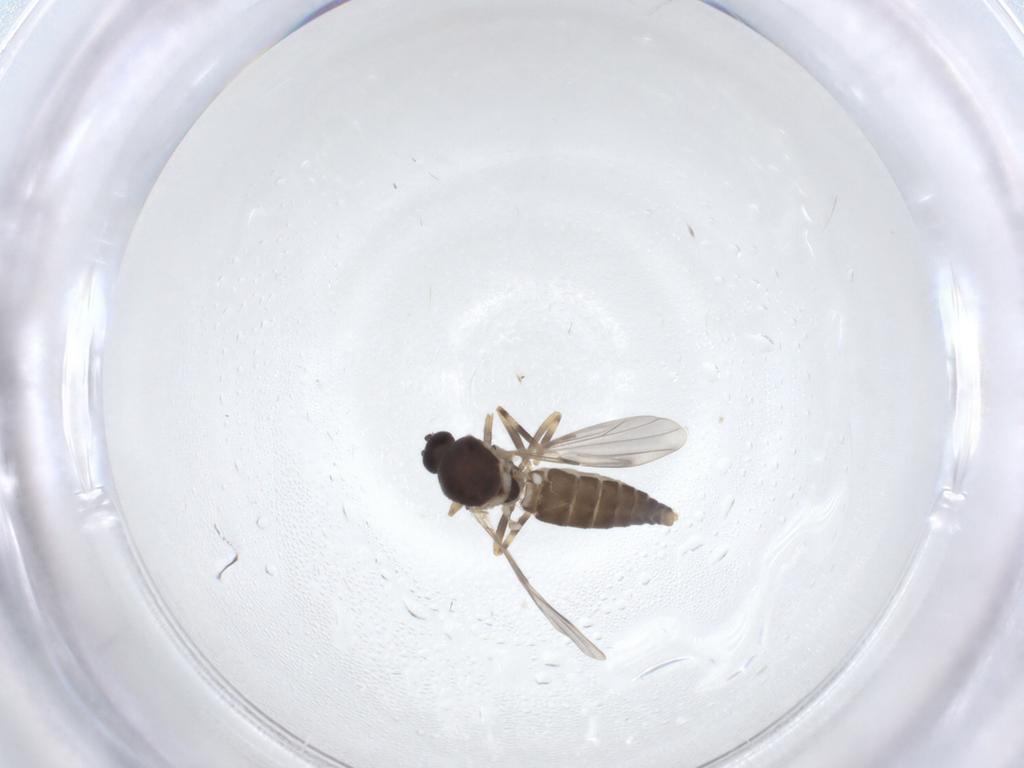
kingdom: Animalia
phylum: Arthropoda
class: Insecta
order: Diptera
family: Ceratopogonidae
